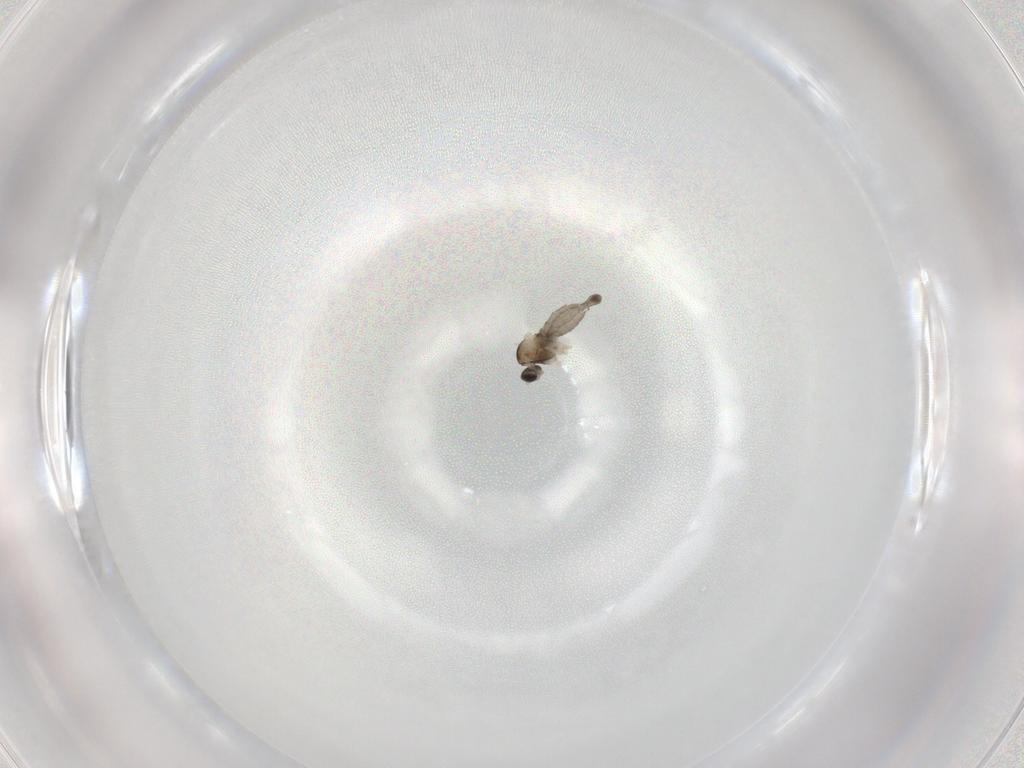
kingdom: Animalia
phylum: Arthropoda
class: Insecta
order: Diptera
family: Cecidomyiidae
